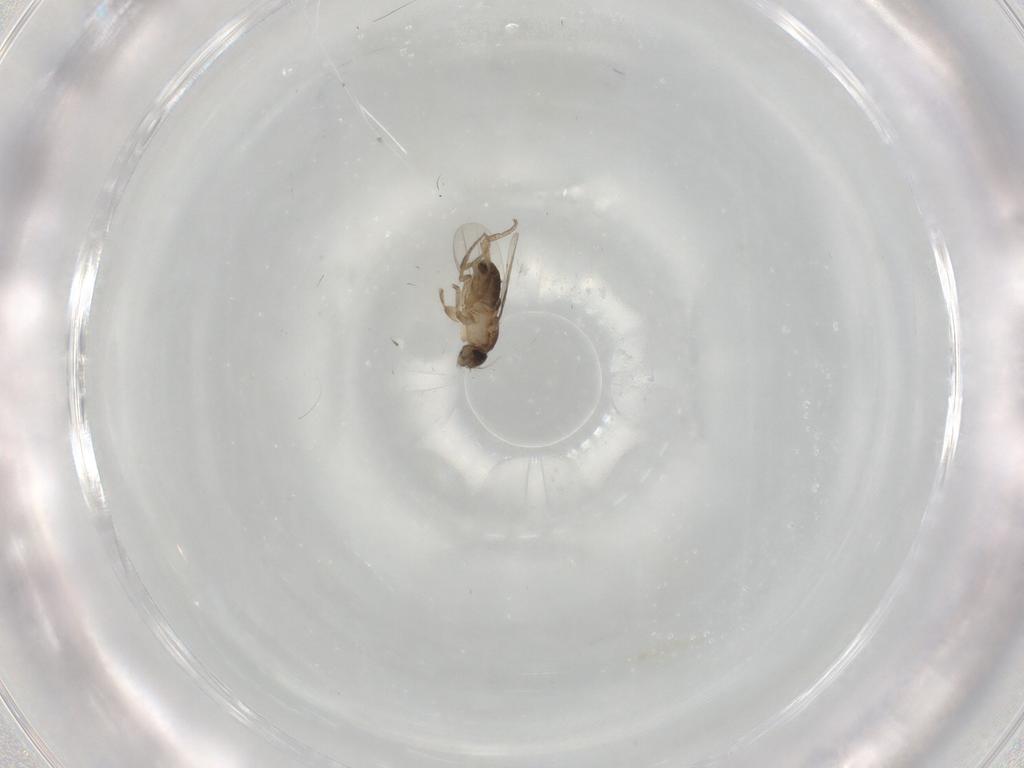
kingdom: Animalia
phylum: Arthropoda
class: Insecta
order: Diptera
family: Phoridae
